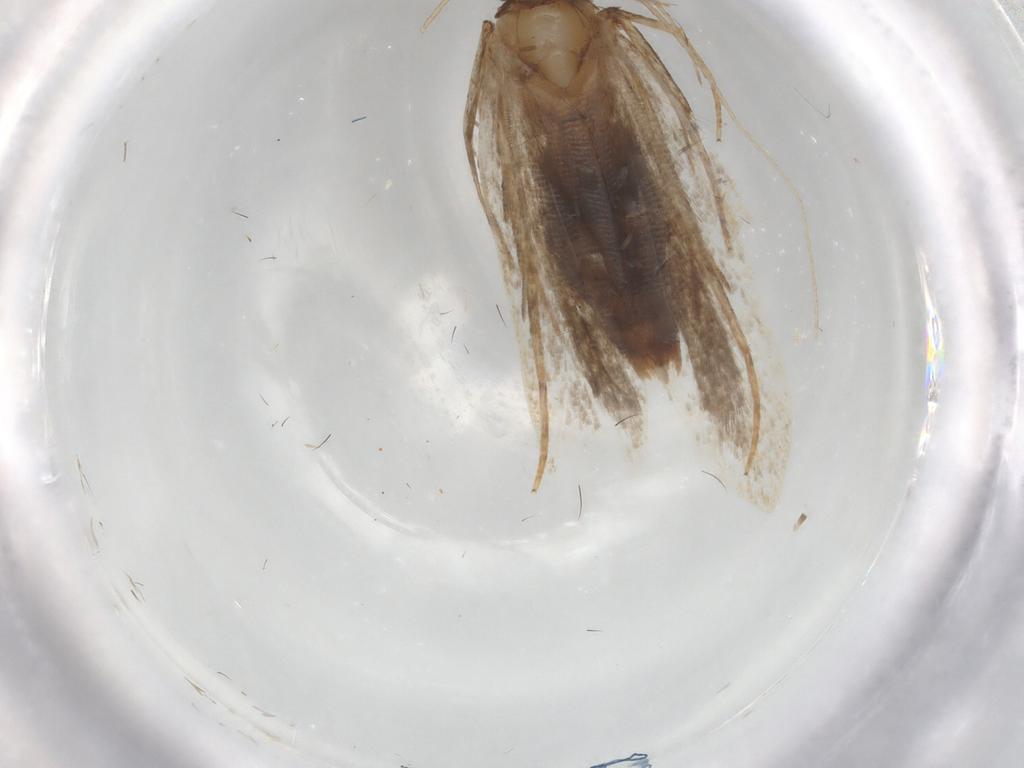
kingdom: Animalia
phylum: Arthropoda
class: Insecta
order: Lepidoptera
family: Gelechiidae
